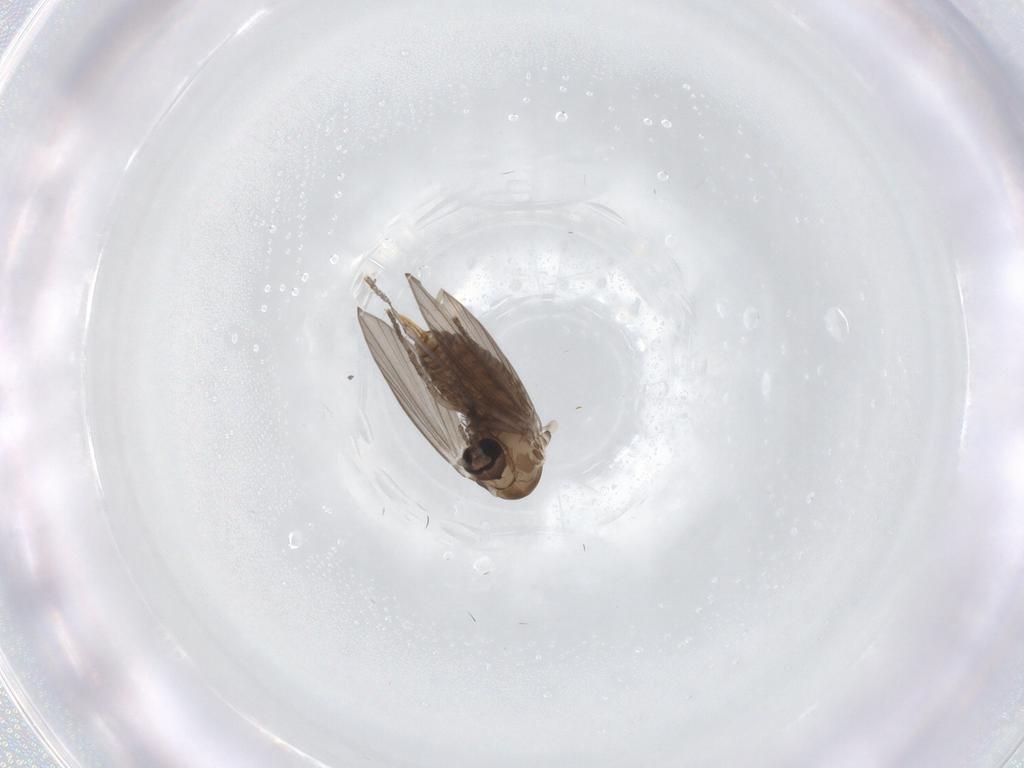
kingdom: Animalia
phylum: Arthropoda
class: Insecta
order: Diptera
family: Psychodidae
